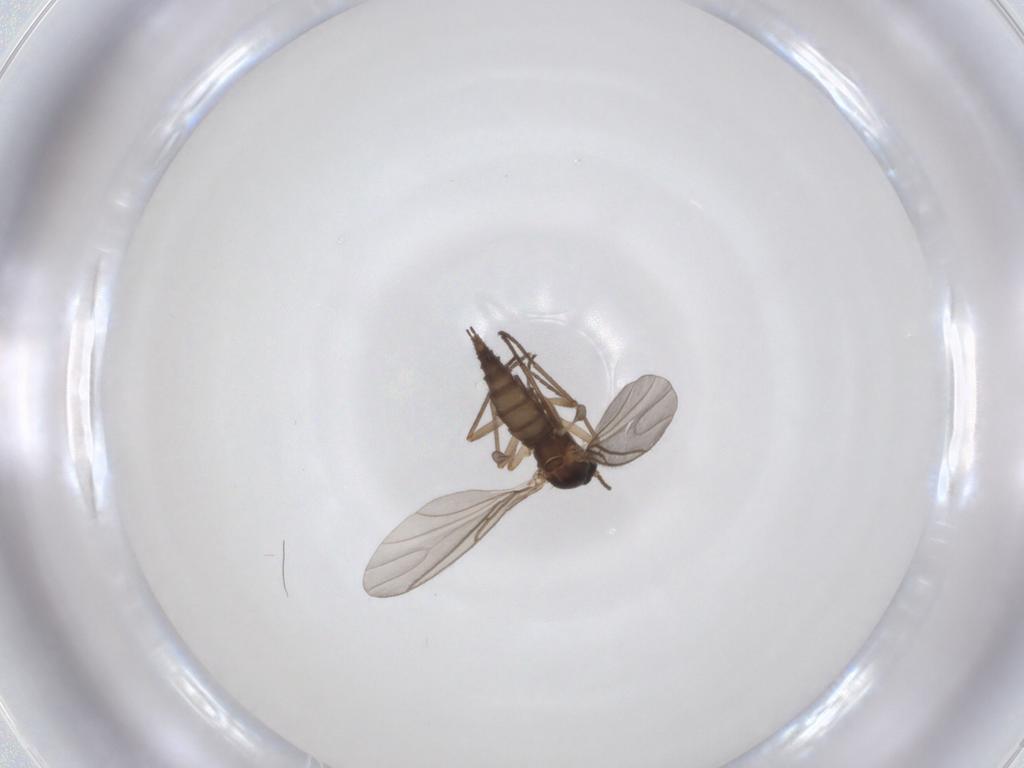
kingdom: Animalia
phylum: Arthropoda
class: Insecta
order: Diptera
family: Sciaridae
